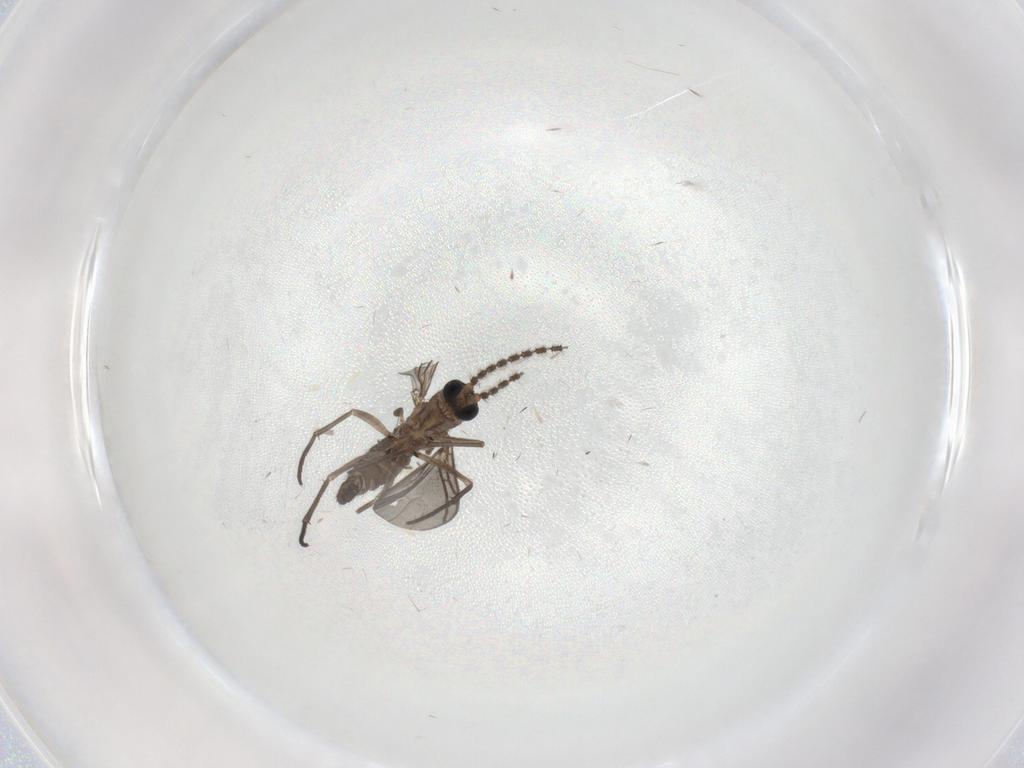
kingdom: Animalia
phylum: Arthropoda
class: Insecta
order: Diptera
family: Sciaridae
